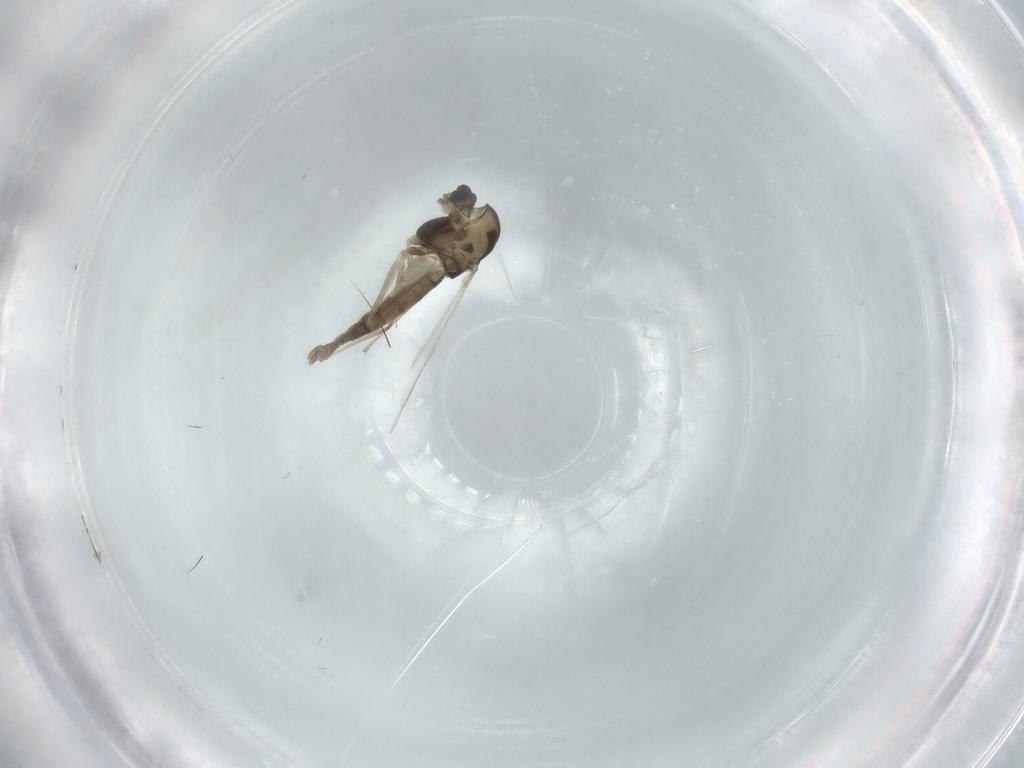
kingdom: Animalia
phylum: Arthropoda
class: Insecta
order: Diptera
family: Chironomidae
